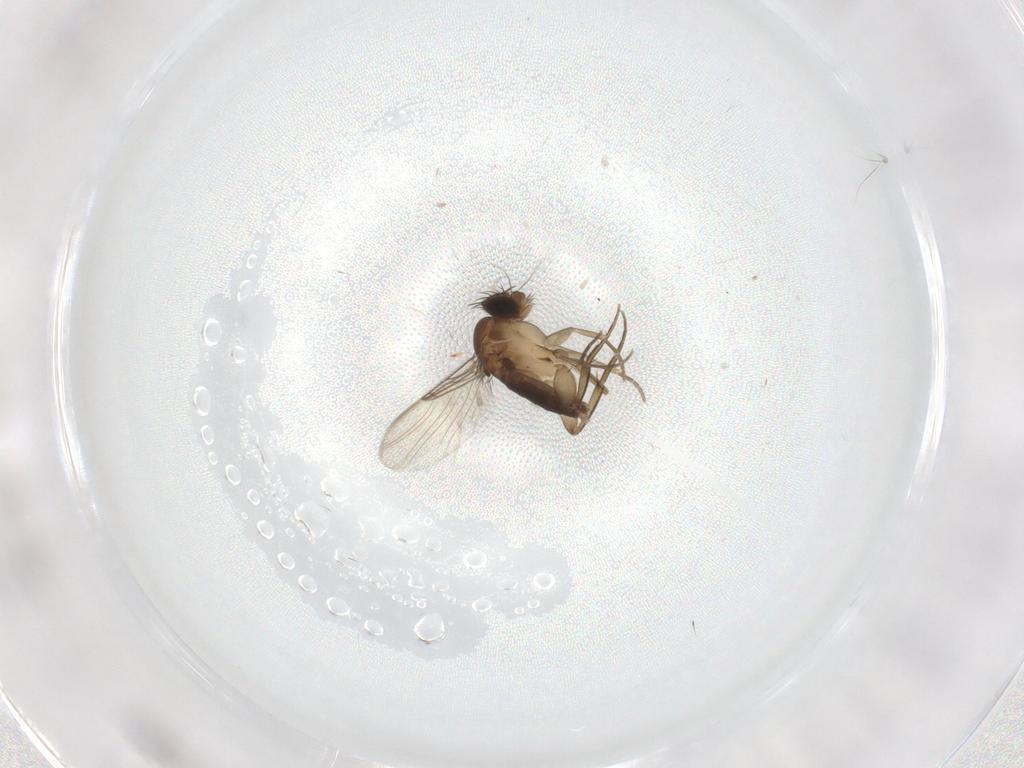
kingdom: Animalia
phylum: Arthropoda
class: Insecta
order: Diptera
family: Phoridae
